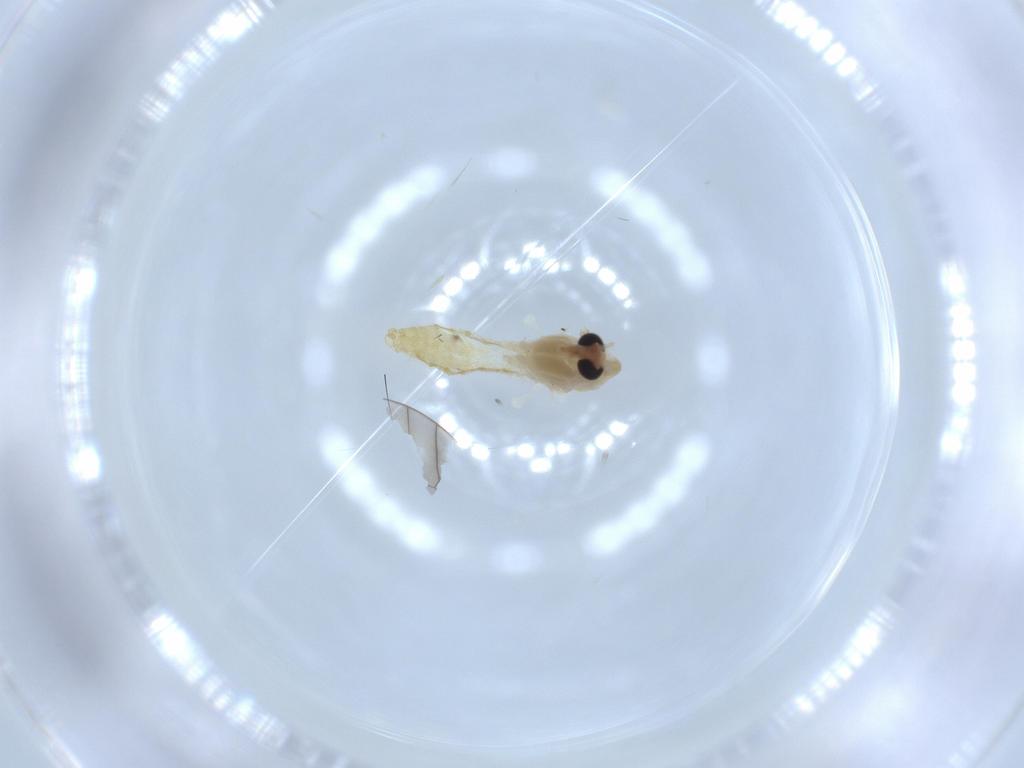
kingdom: Animalia
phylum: Arthropoda
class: Insecta
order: Diptera
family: Chironomidae
